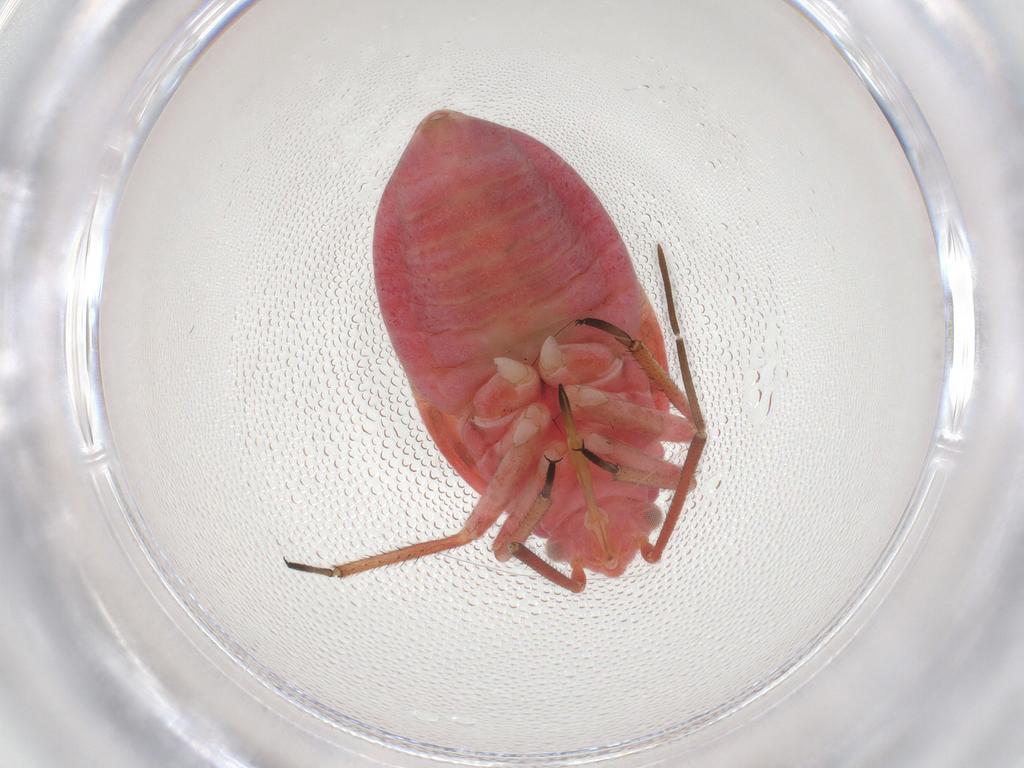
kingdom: Animalia
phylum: Arthropoda
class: Insecta
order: Hemiptera
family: Miridae
